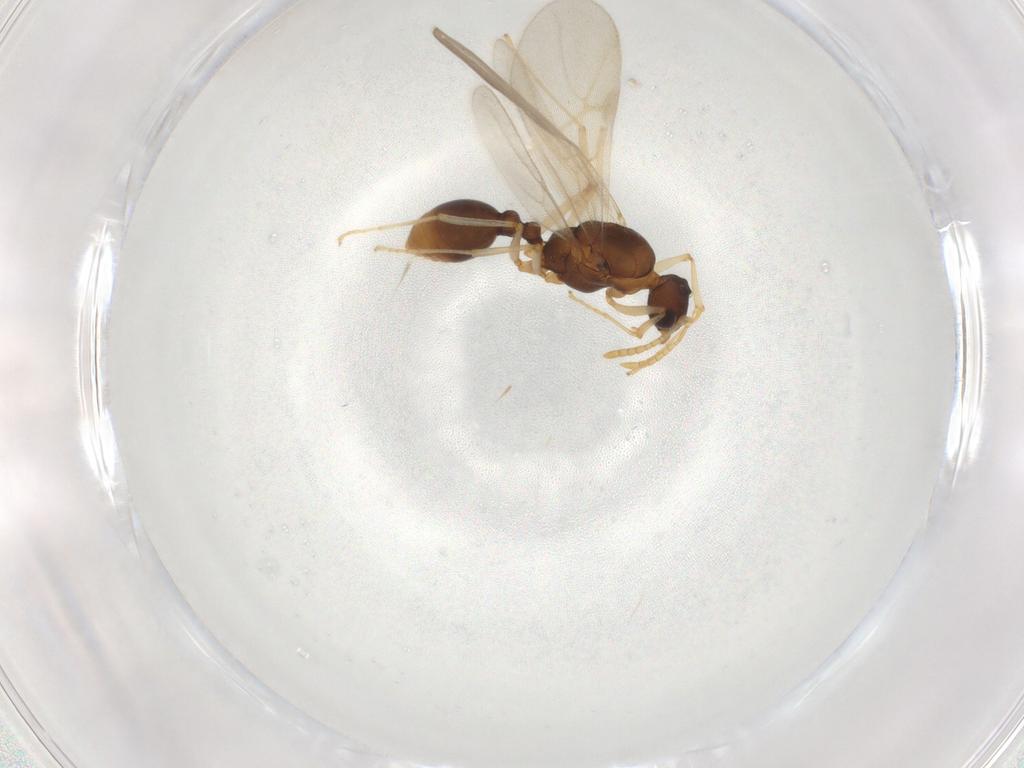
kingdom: Animalia
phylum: Arthropoda
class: Insecta
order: Hymenoptera
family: Formicidae
